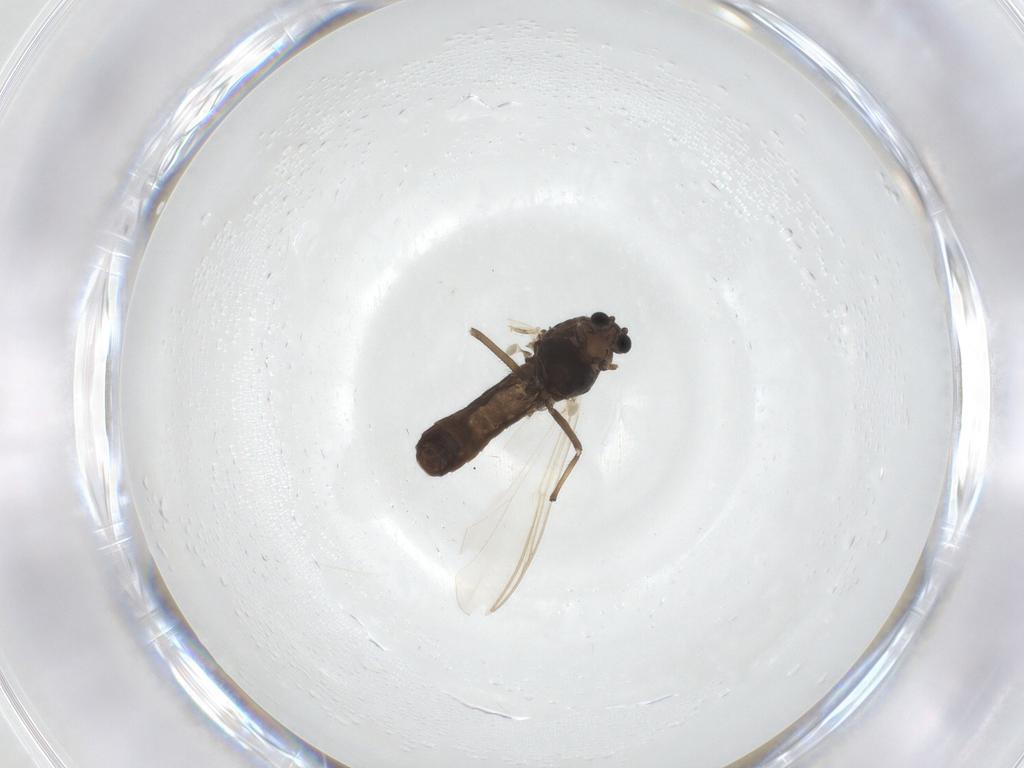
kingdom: Animalia
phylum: Arthropoda
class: Insecta
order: Diptera
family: Chironomidae
